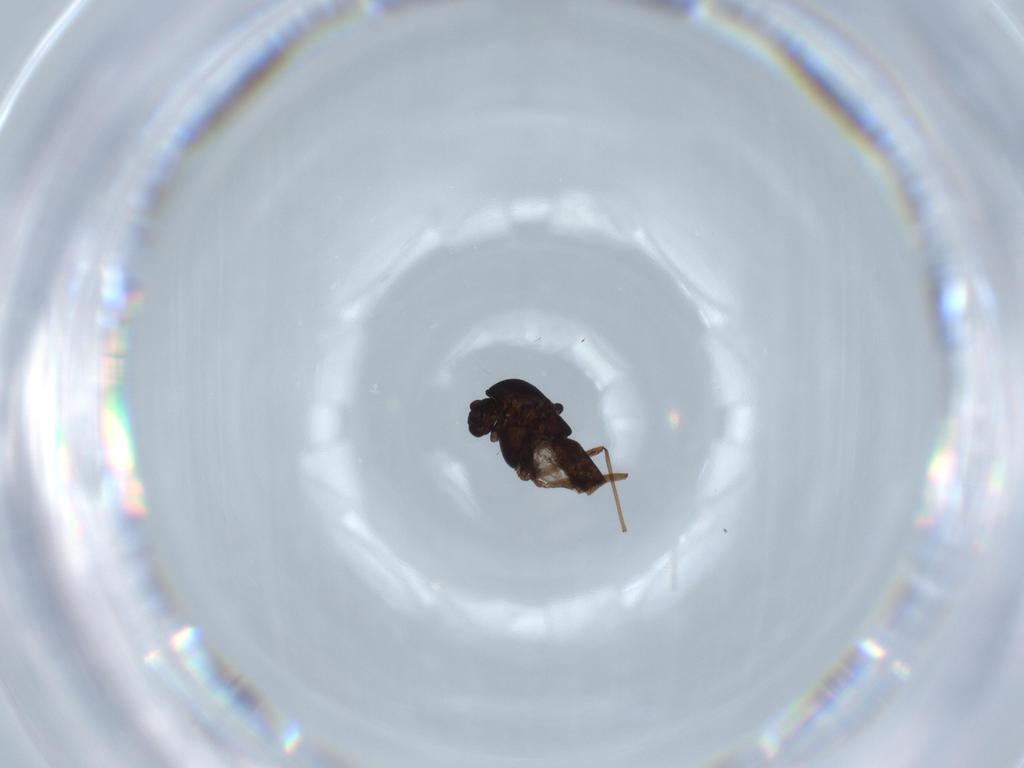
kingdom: Animalia
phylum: Arthropoda
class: Insecta
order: Diptera
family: Chironomidae
